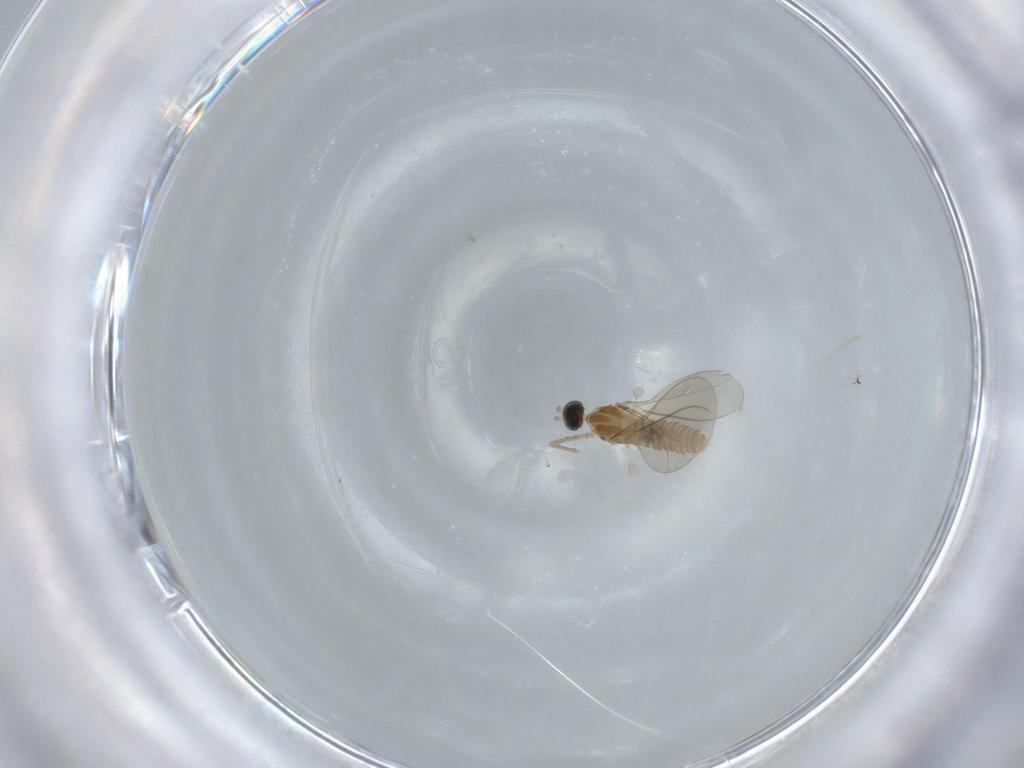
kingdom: Animalia
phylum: Arthropoda
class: Insecta
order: Diptera
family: Cecidomyiidae
